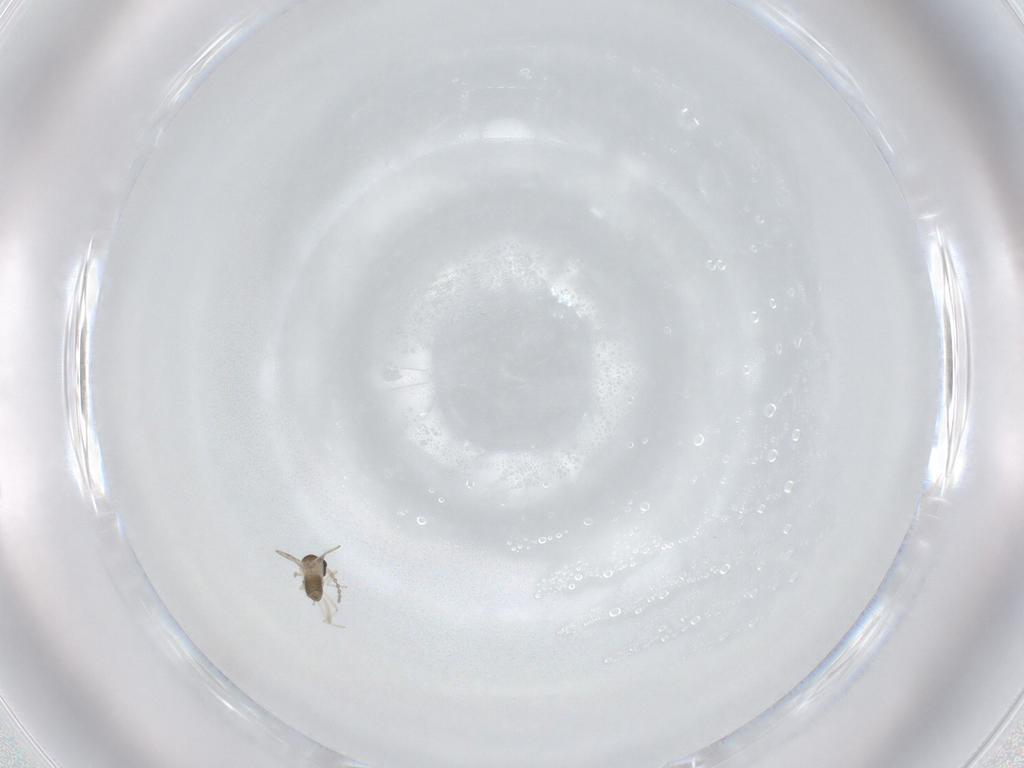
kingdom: Animalia
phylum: Arthropoda
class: Insecta
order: Diptera
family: Cecidomyiidae
